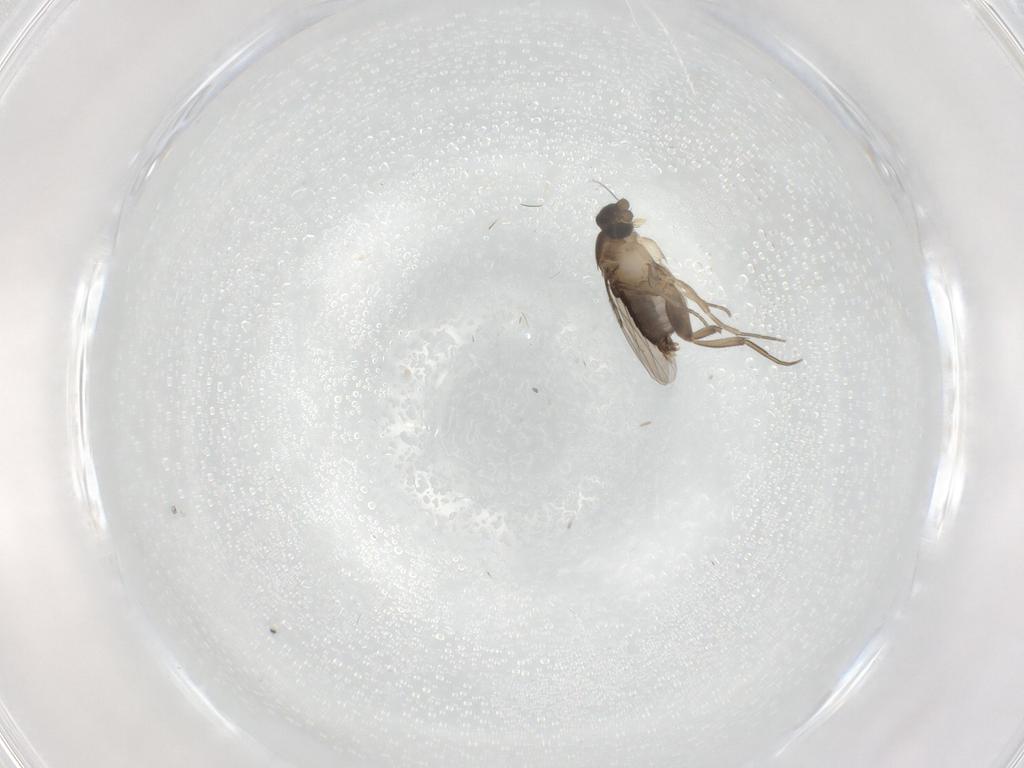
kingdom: Animalia
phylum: Arthropoda
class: Insecta
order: Diptera
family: Phoridae
